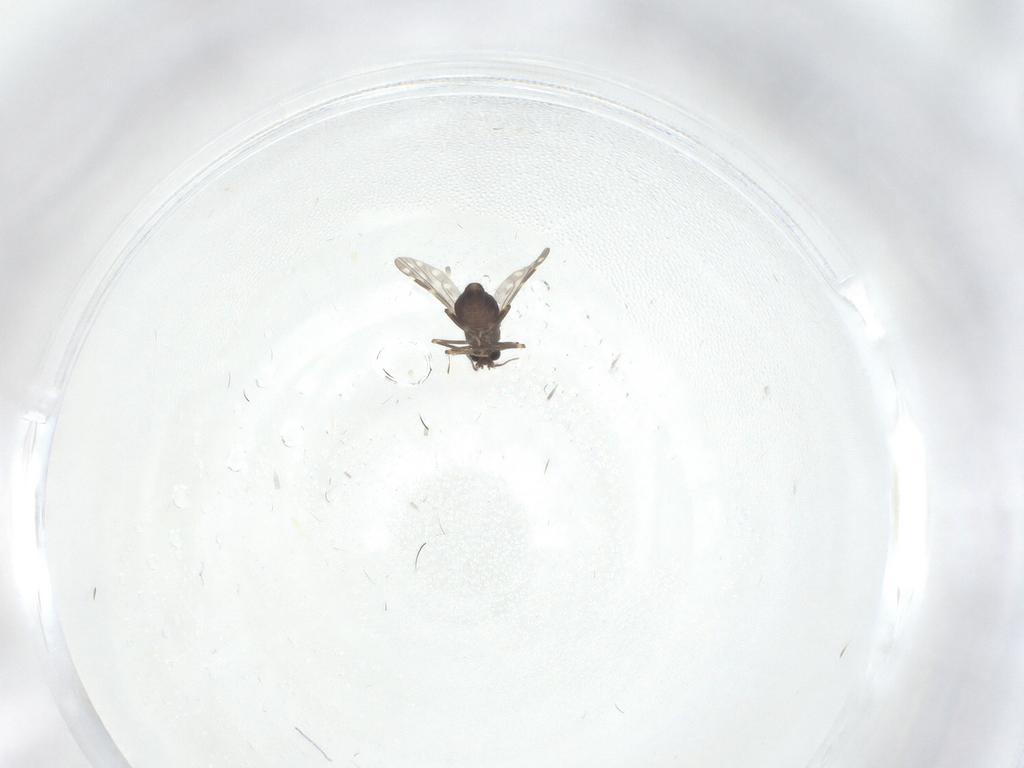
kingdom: Animalia
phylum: Arthropoda
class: Insecta
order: Diptera
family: Ceratopogonidae
